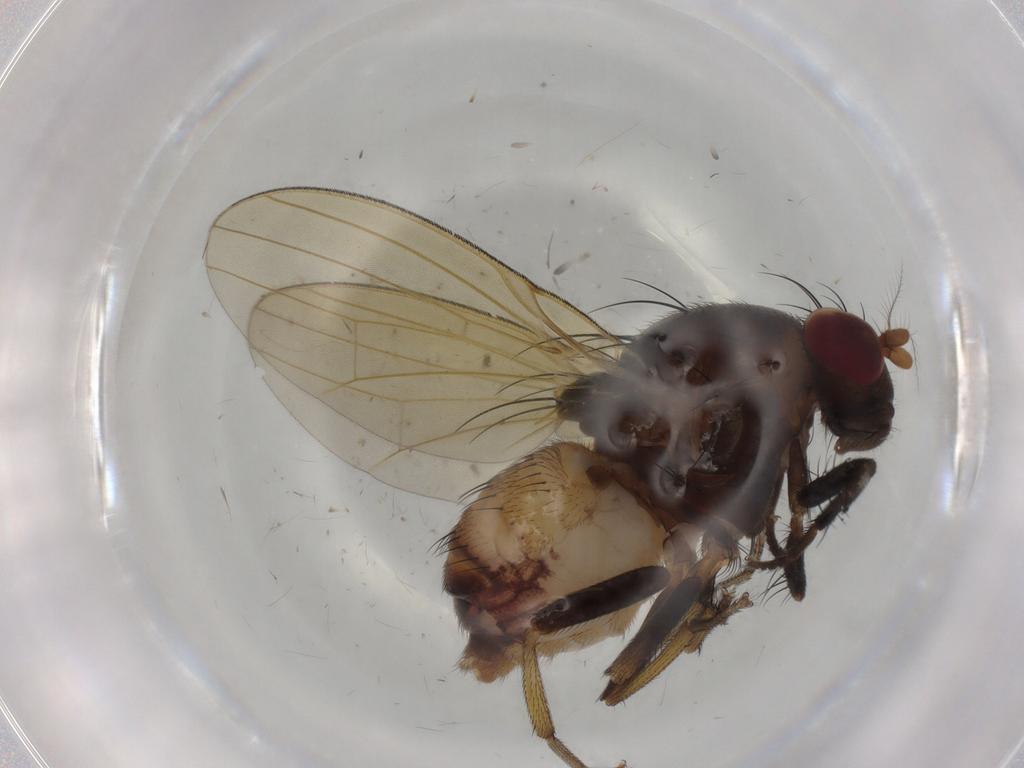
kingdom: Animalia
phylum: Arthropoda
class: Insecta
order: Diptera
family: Lauxaniidae
